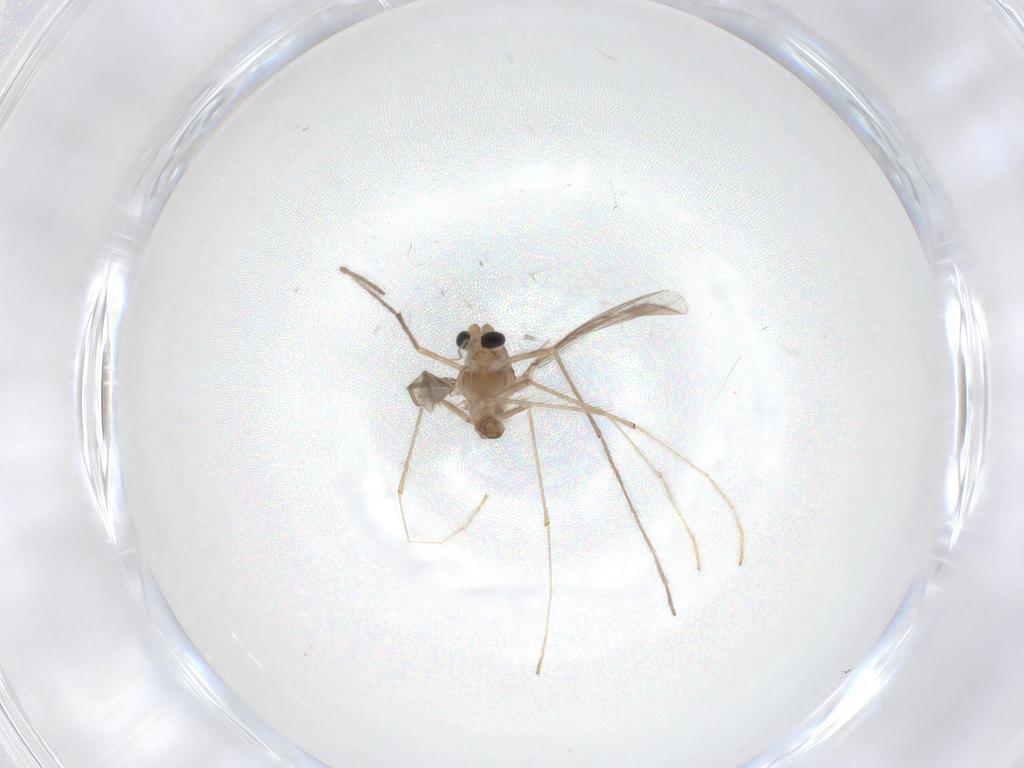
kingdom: Animalia
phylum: Arthropoda
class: Insecta
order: Diptera
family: Chironomidae
